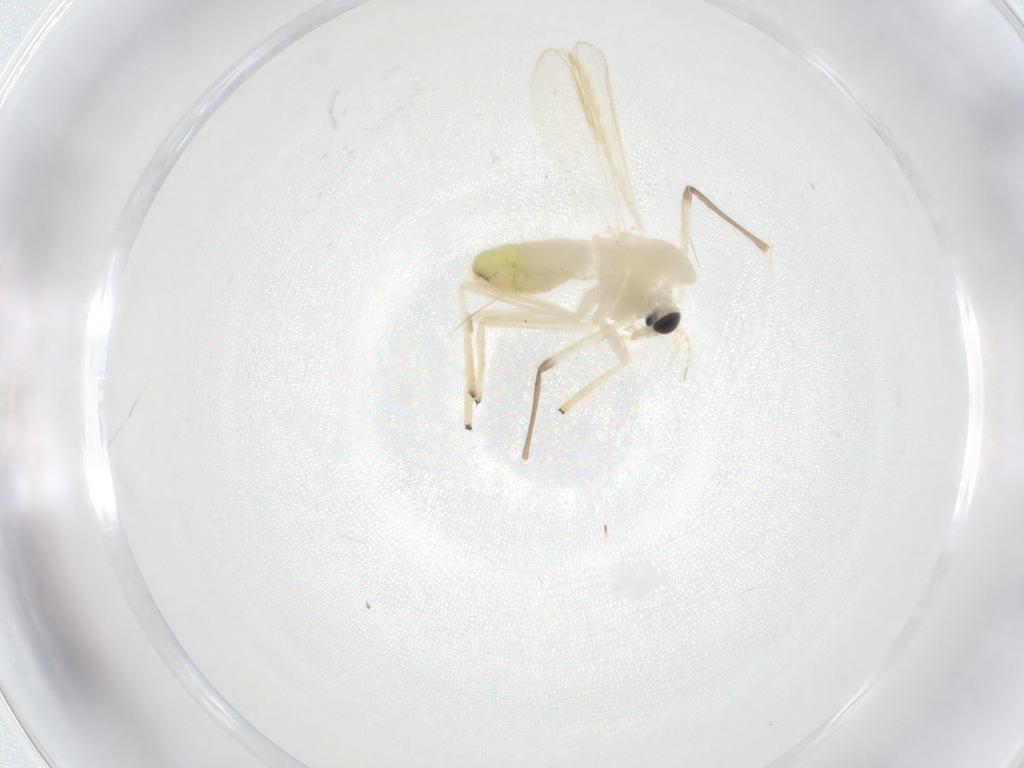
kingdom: Animalia
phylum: Arthropoda
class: Insecta
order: Diptera
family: Chironomidae
